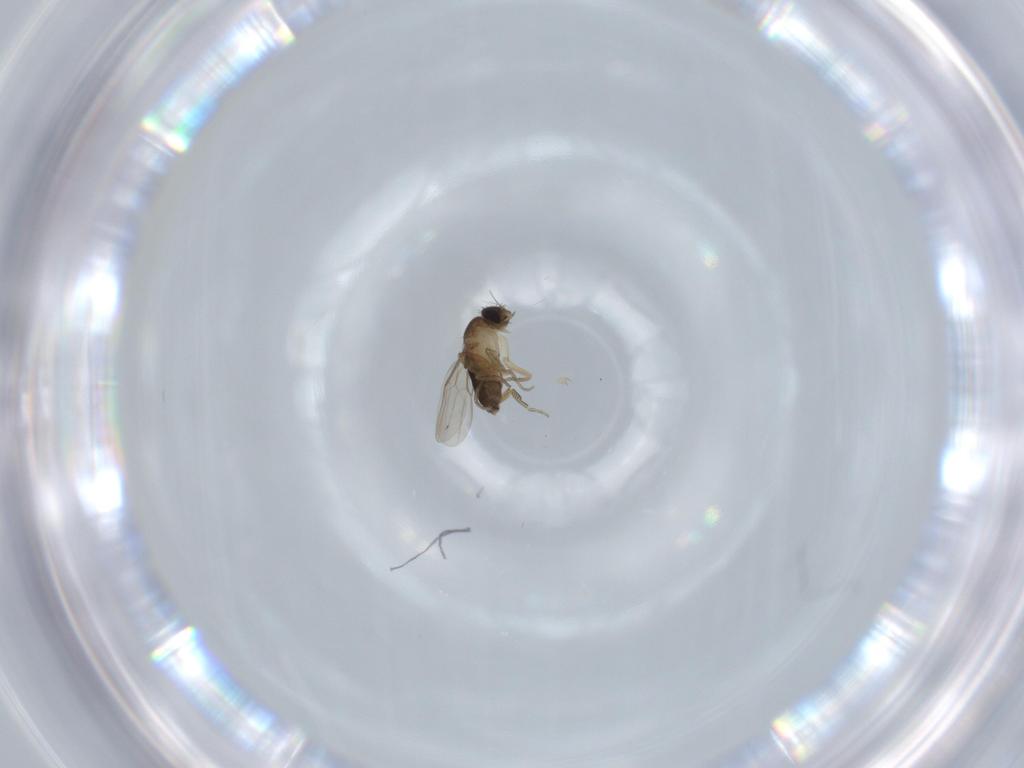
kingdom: Animalia
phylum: Arthropoda
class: Insecta
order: Diptera
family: Phoridae
